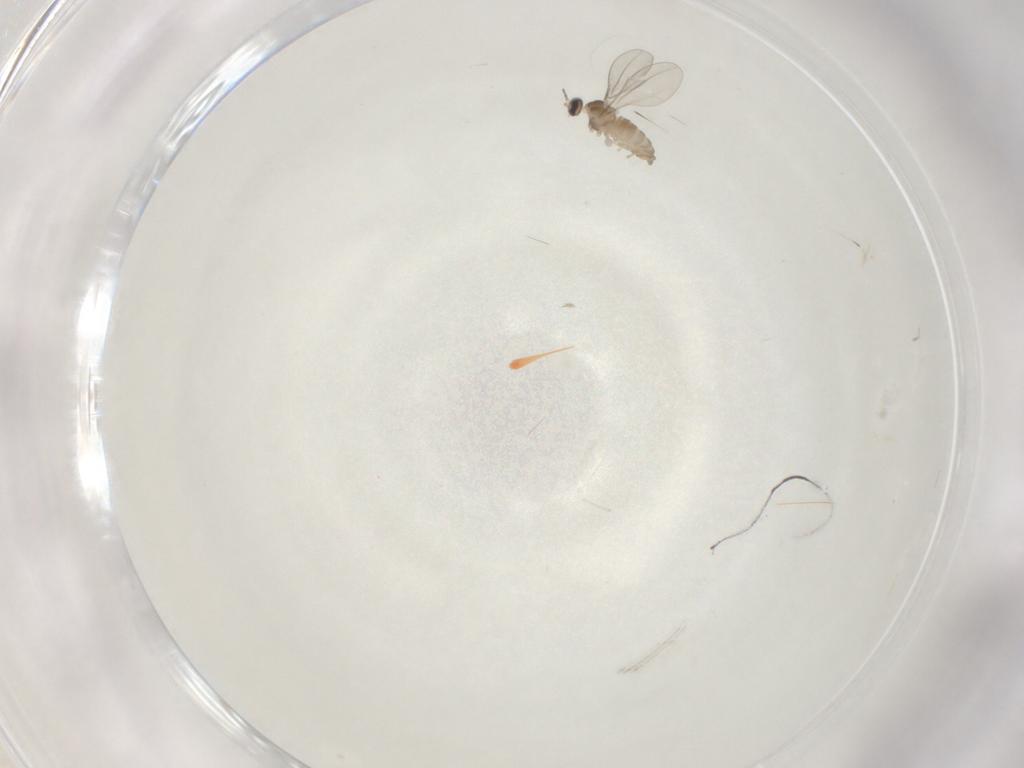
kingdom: Animalia
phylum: Arthropoda
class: Insecta
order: Diptera
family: Cecidomyiidae
